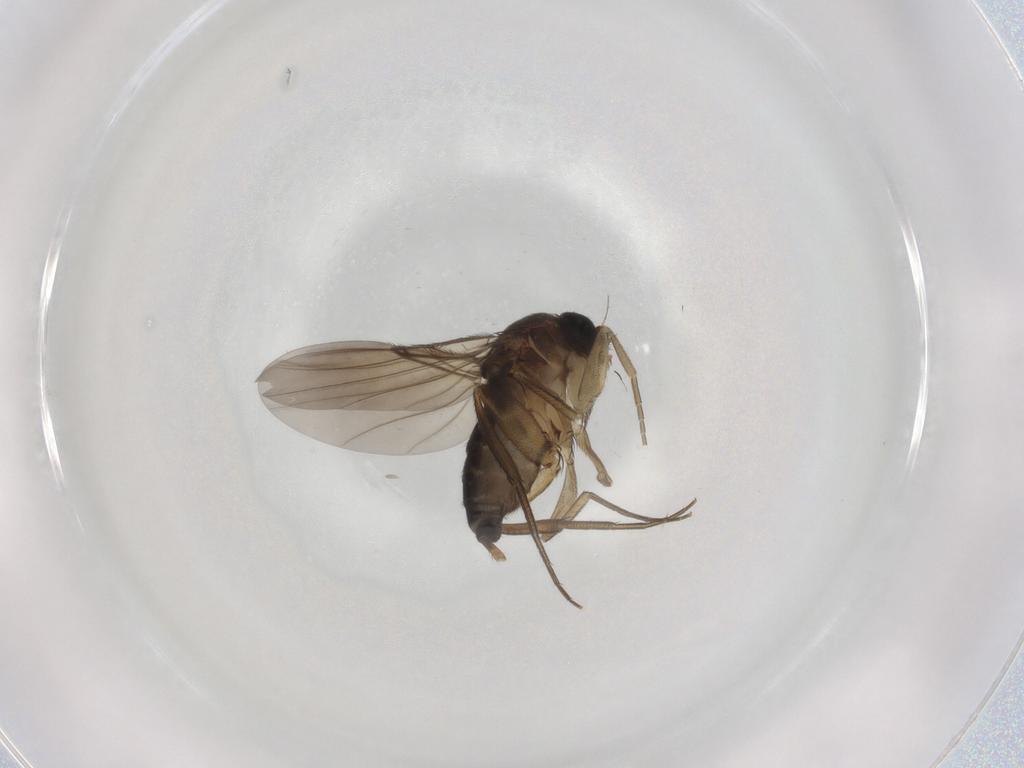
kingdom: Animalia
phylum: Arthropoda
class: Insecta
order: Diptera
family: Phoridae
